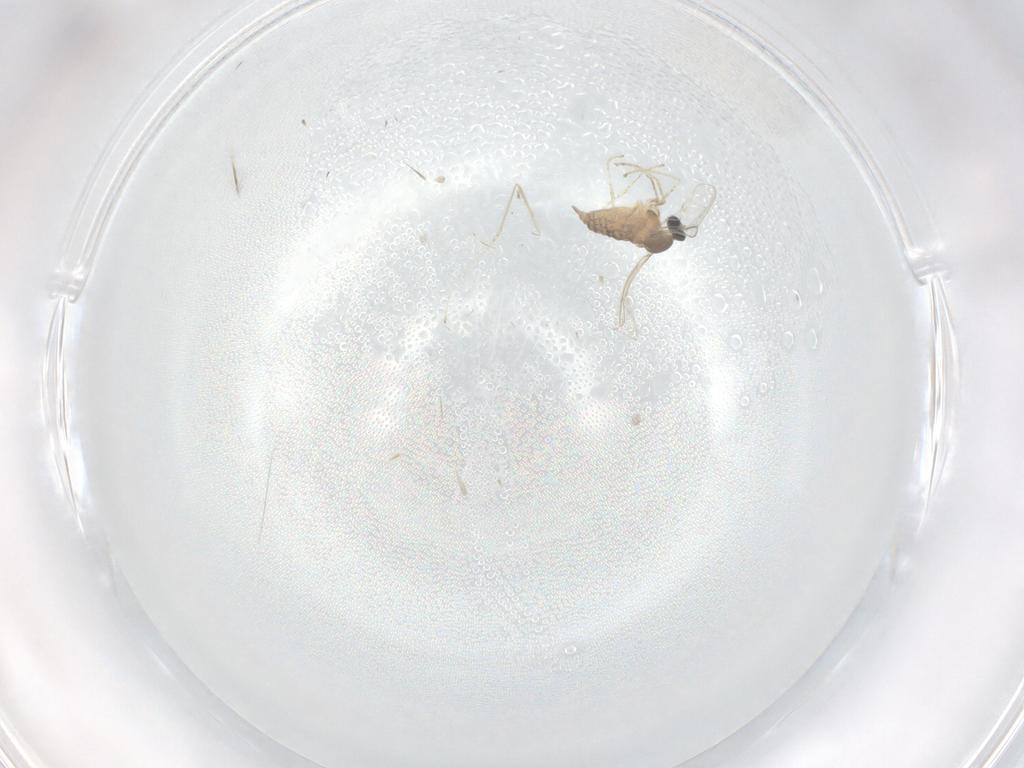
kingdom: Animalia
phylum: Arthropoda
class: Insecta
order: Diptera
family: Cecidomyiidae
